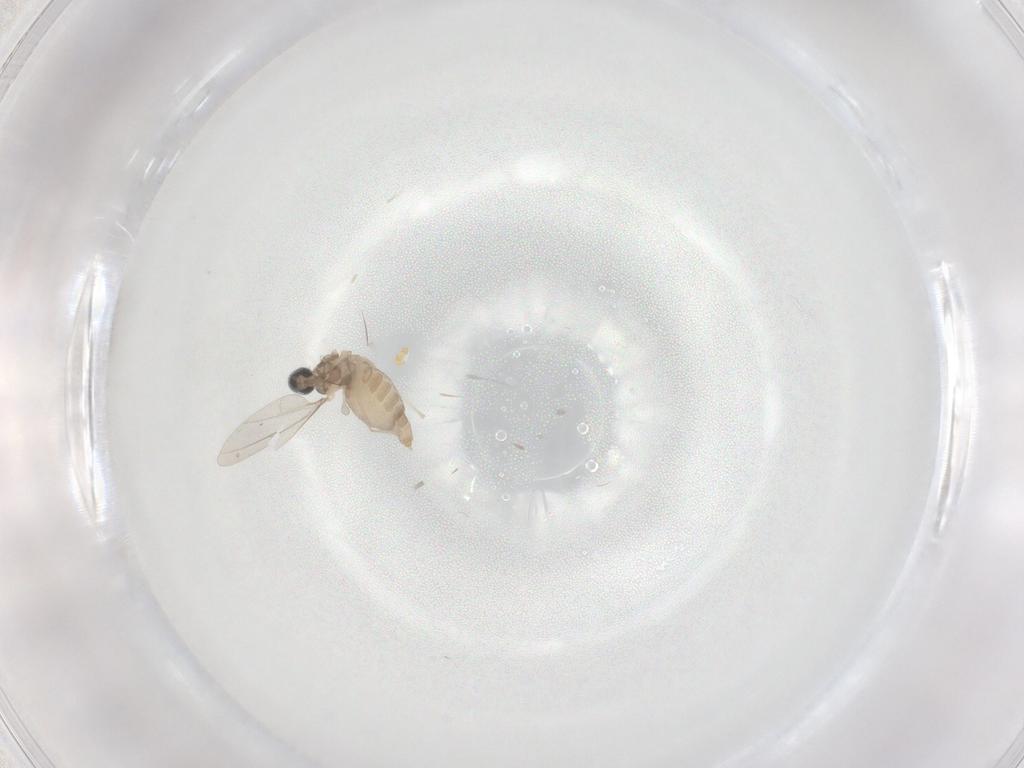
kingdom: Animalia
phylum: Arthropoda
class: Insecta
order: Diptera
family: Cecidomyiidae
